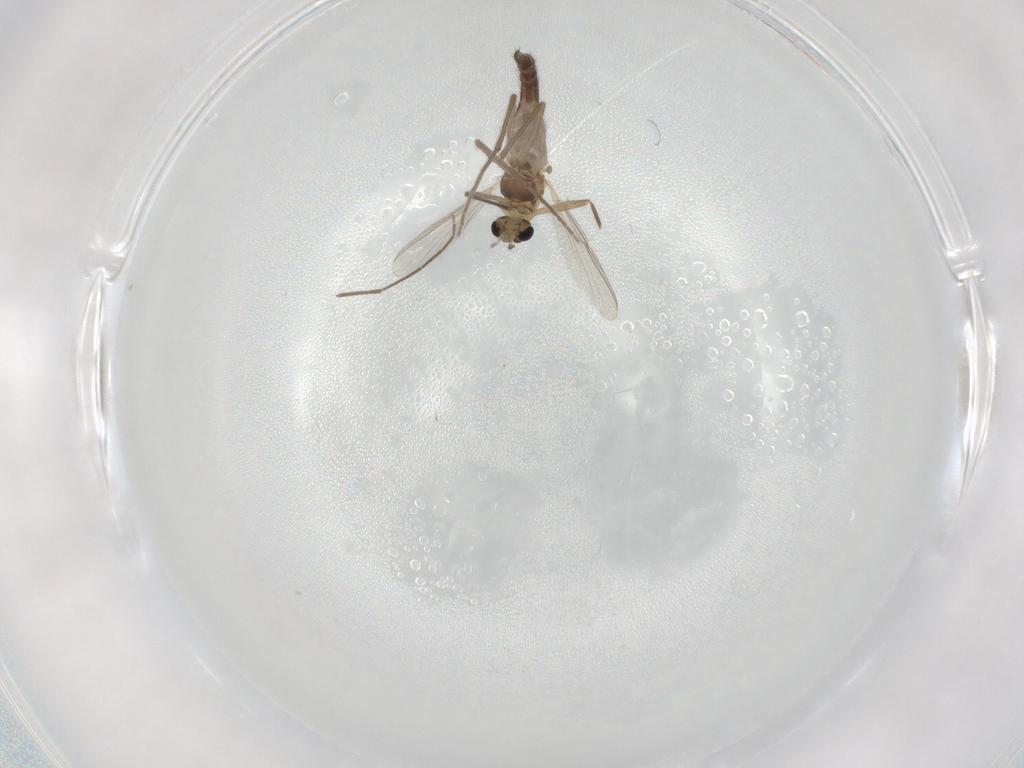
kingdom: Animalia
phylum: Arthropoda
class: Insecta
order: Diptera
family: Chironomidae
